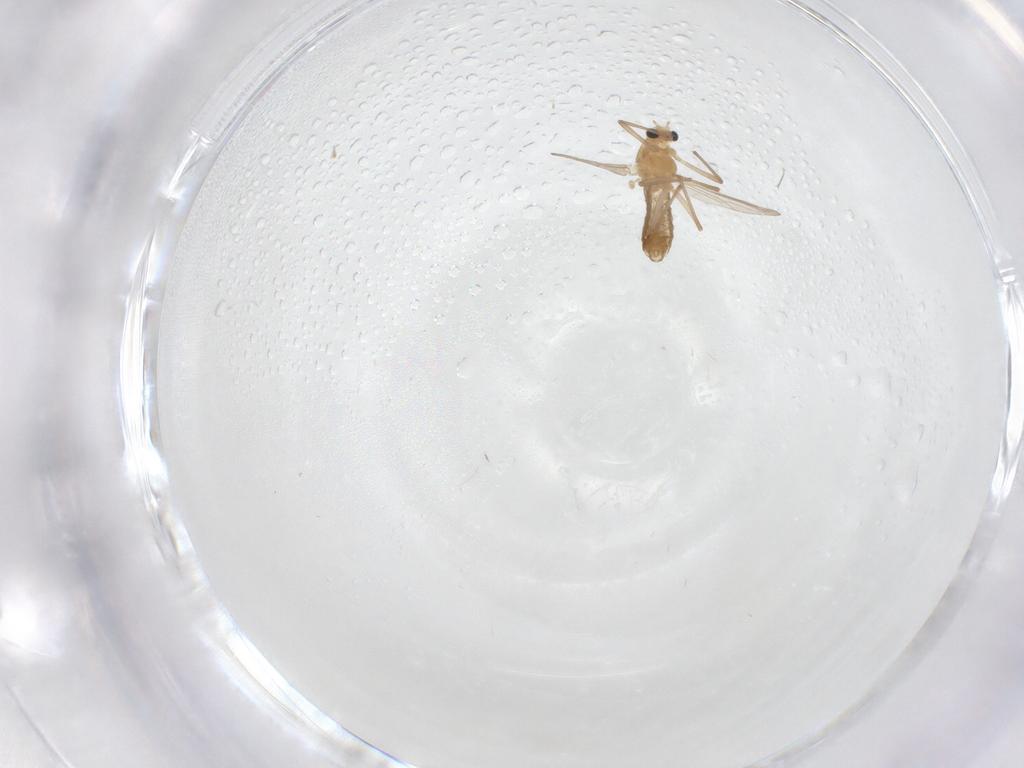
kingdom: Animalia
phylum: Arthropoda
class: Insecta
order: Diptera
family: Chironomidae
